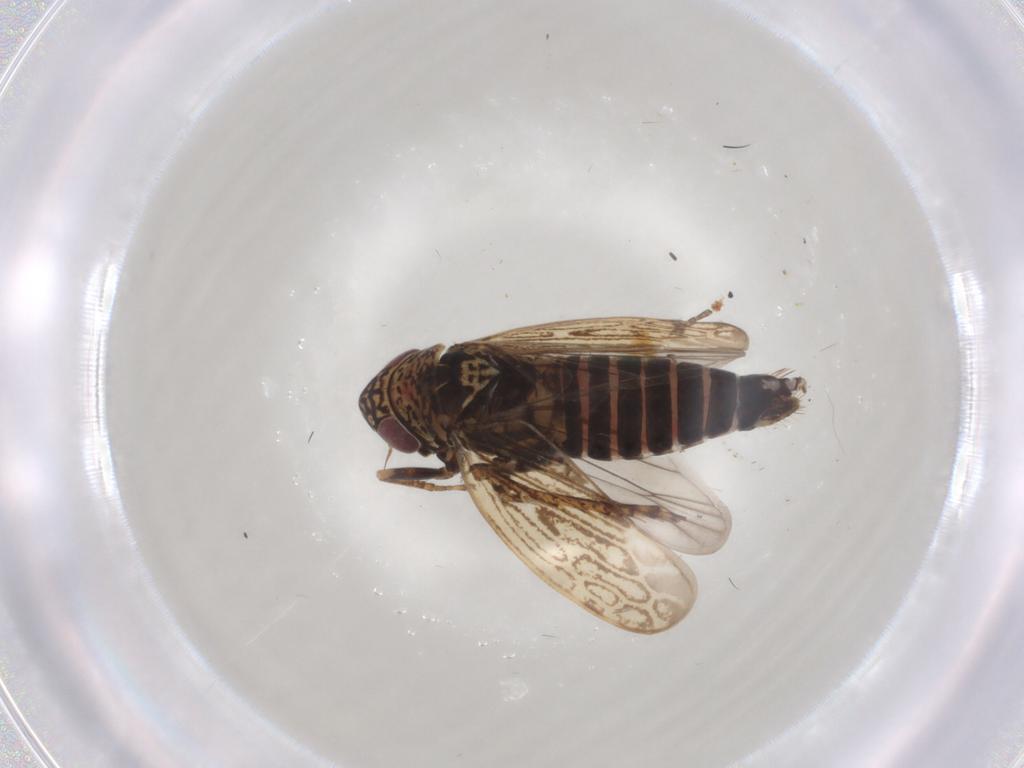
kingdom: Animalia
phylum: Arthropoda
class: Insecta
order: Hemiptera
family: Cicadellidae
